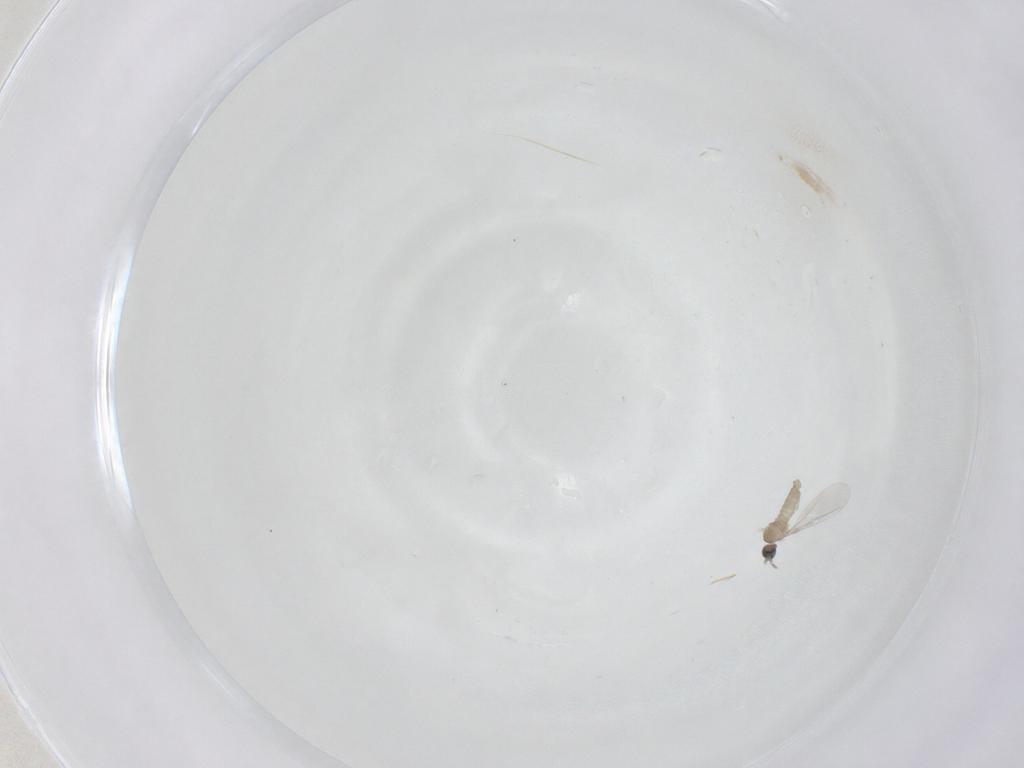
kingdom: Animalia
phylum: Arthropoda
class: Insecta
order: Diptera
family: Cecidomyiidae
